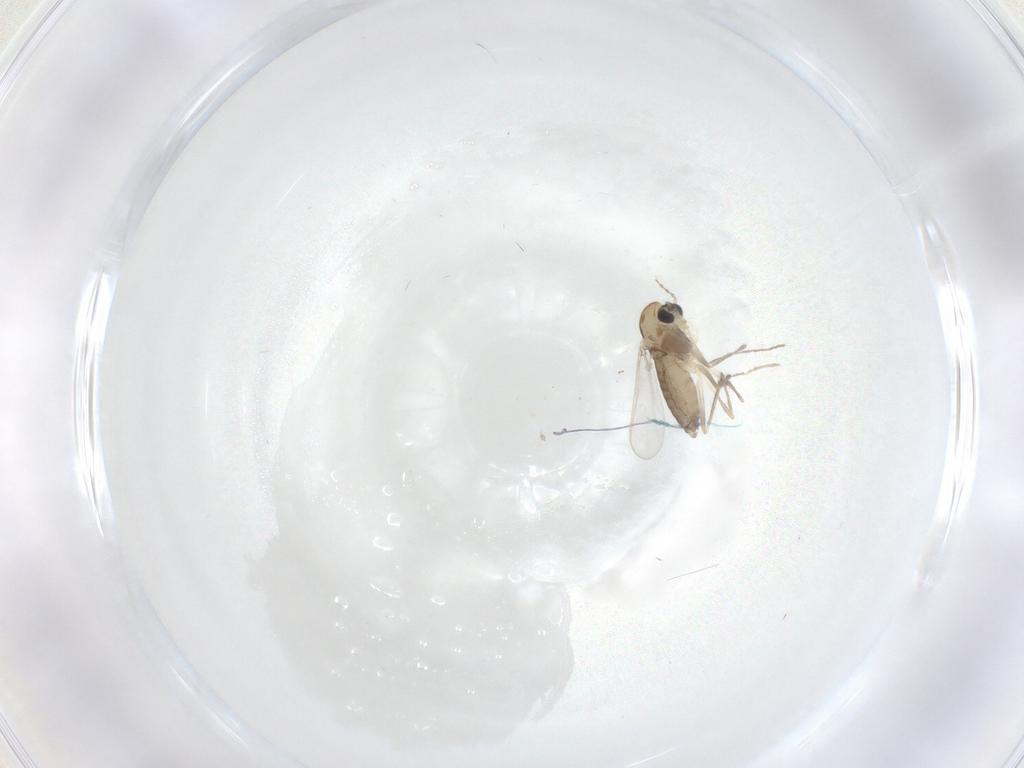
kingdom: Animalia
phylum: Arthropoda
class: Insecta
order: Diptera
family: Chironomidae
